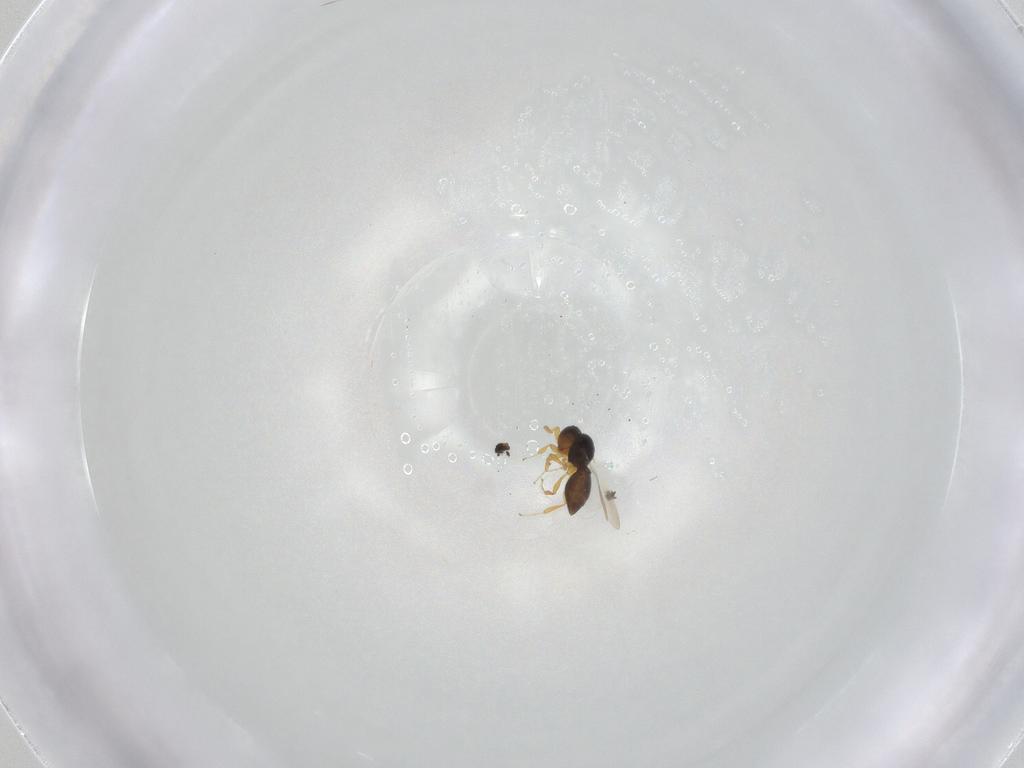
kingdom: Animalia
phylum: Arthropoda
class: Insecta
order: Hymenoptera
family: Platygastridae
